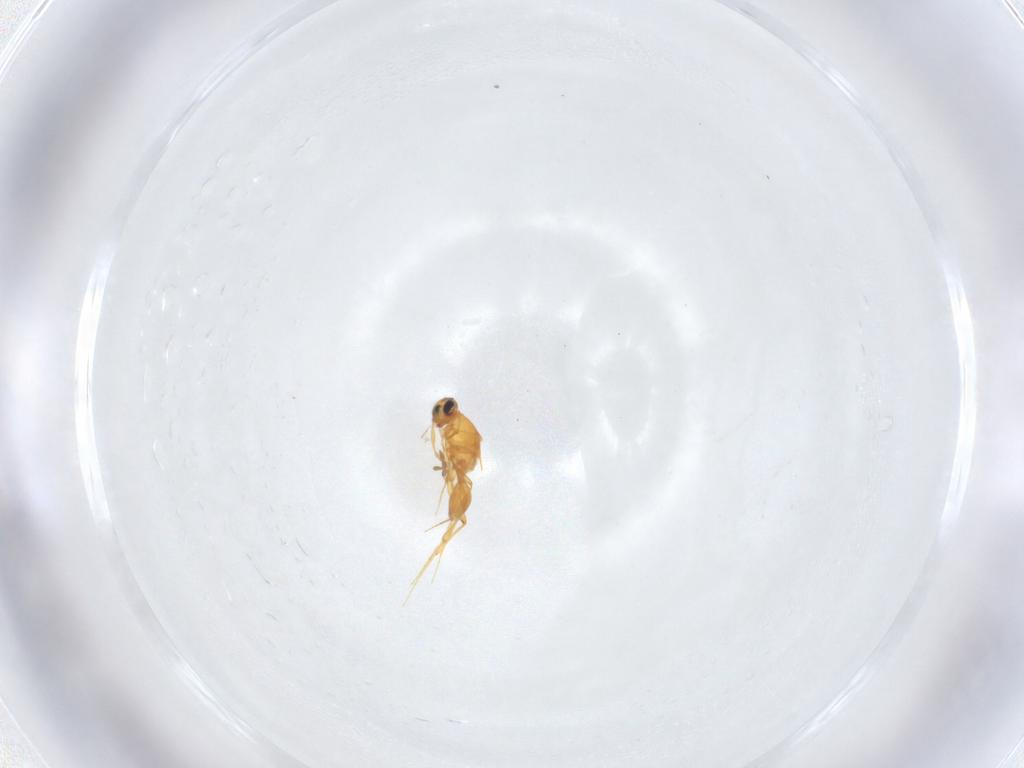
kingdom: Animalia
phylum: Arthropoda
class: Insecta
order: Hymenoptera
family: Platygastridae
